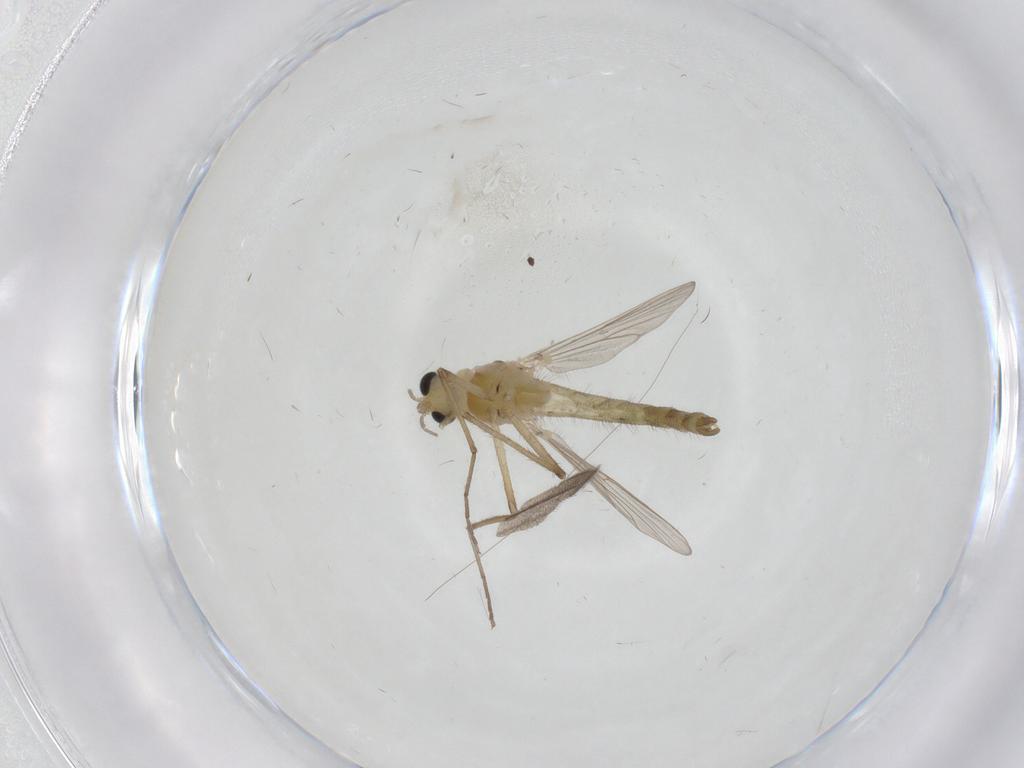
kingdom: Animalia
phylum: Arthropoda
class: Insecta
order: Diptera
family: Chironomidae
